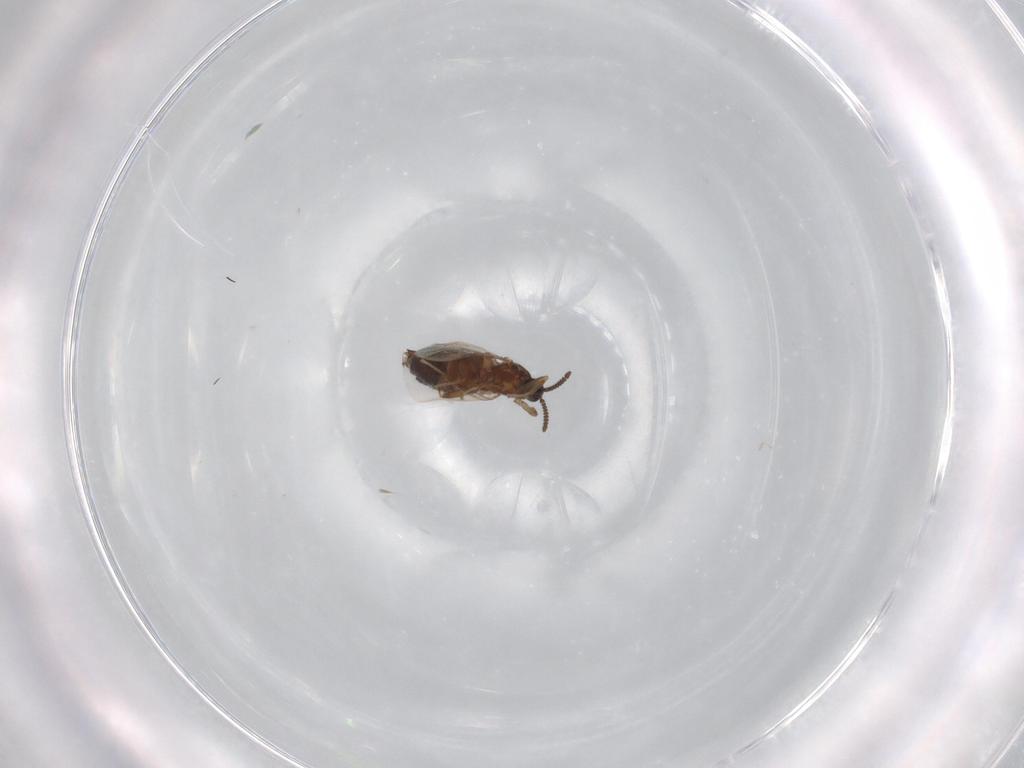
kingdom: Animalia
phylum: Arthropoda
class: Insecta
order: Diptera
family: Scatopsidae
